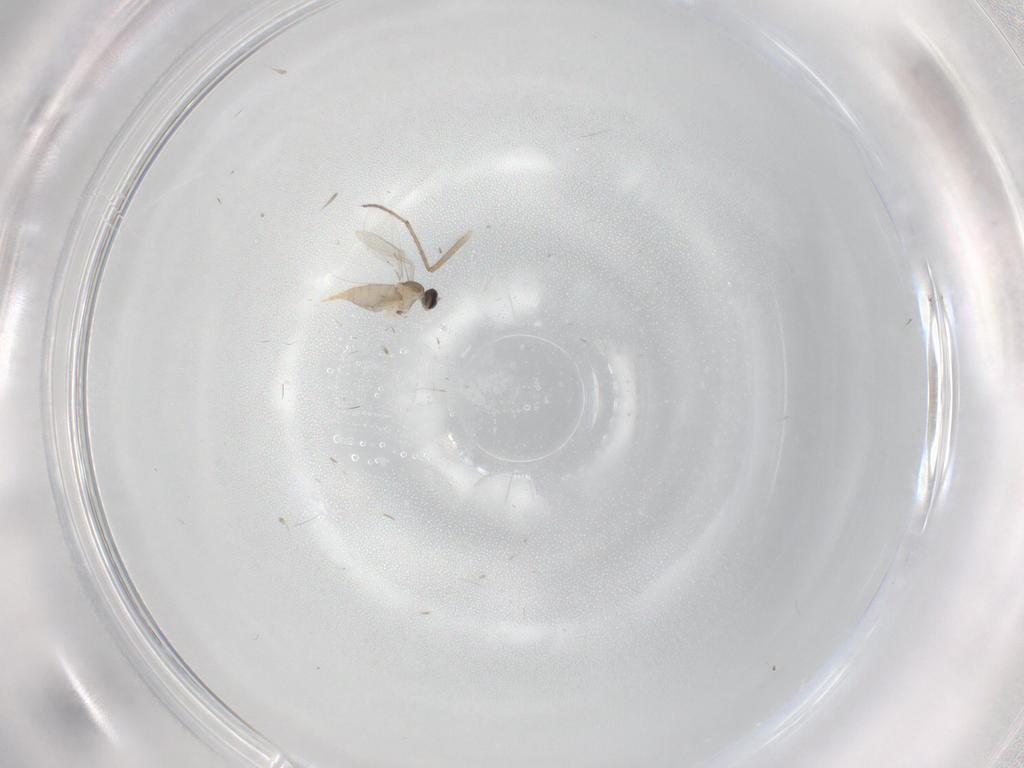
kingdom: Animalia
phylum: Arthropoda
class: Insecta
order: Diptera
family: Cecidomyiidae
